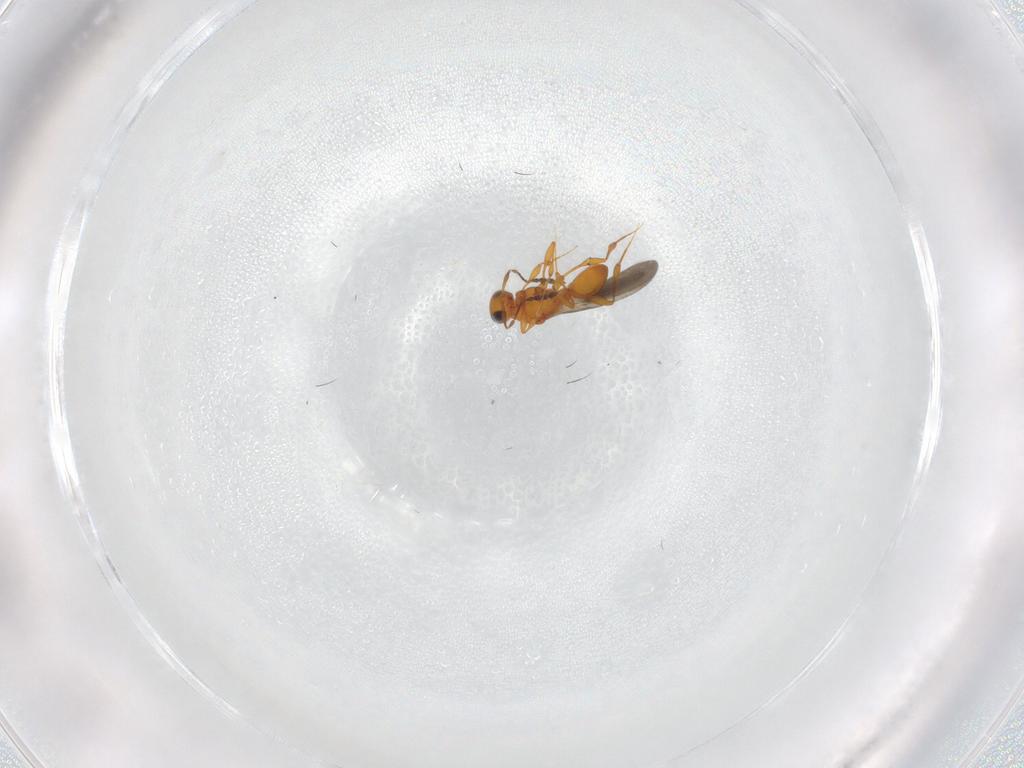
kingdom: Animalia
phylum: Arthropoda
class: Insecta
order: Hymenoptera
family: Platygastridae
